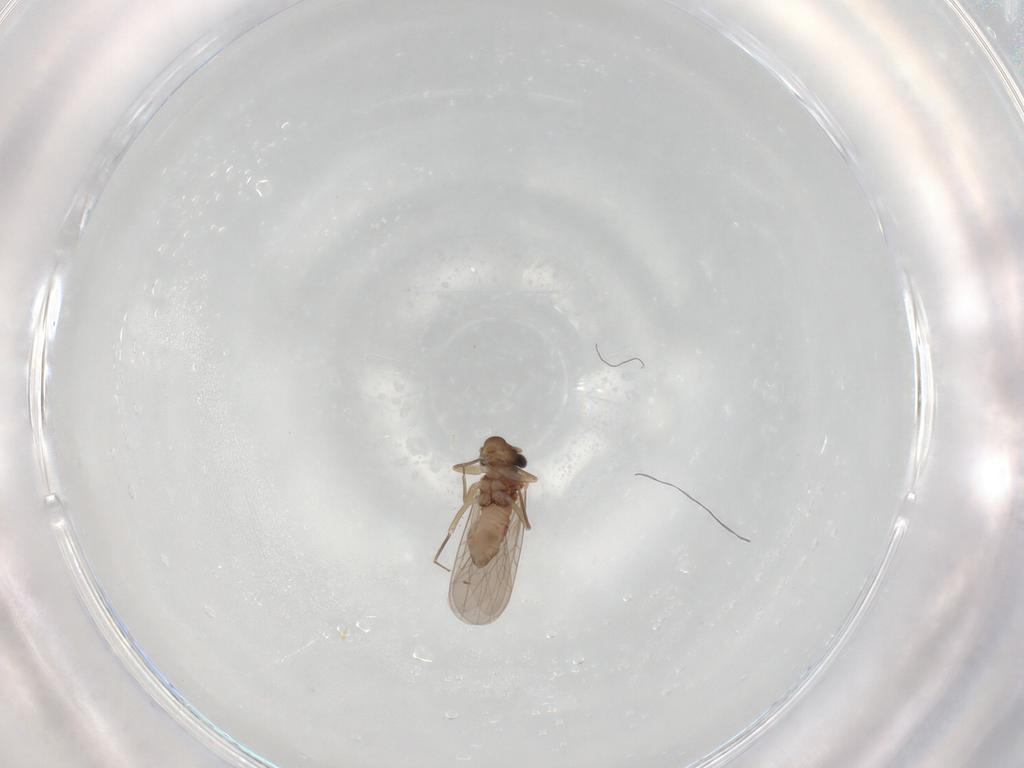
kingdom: Animalia
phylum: Arthropoda
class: Insecta
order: Psocodea
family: Lepidopsocidae
